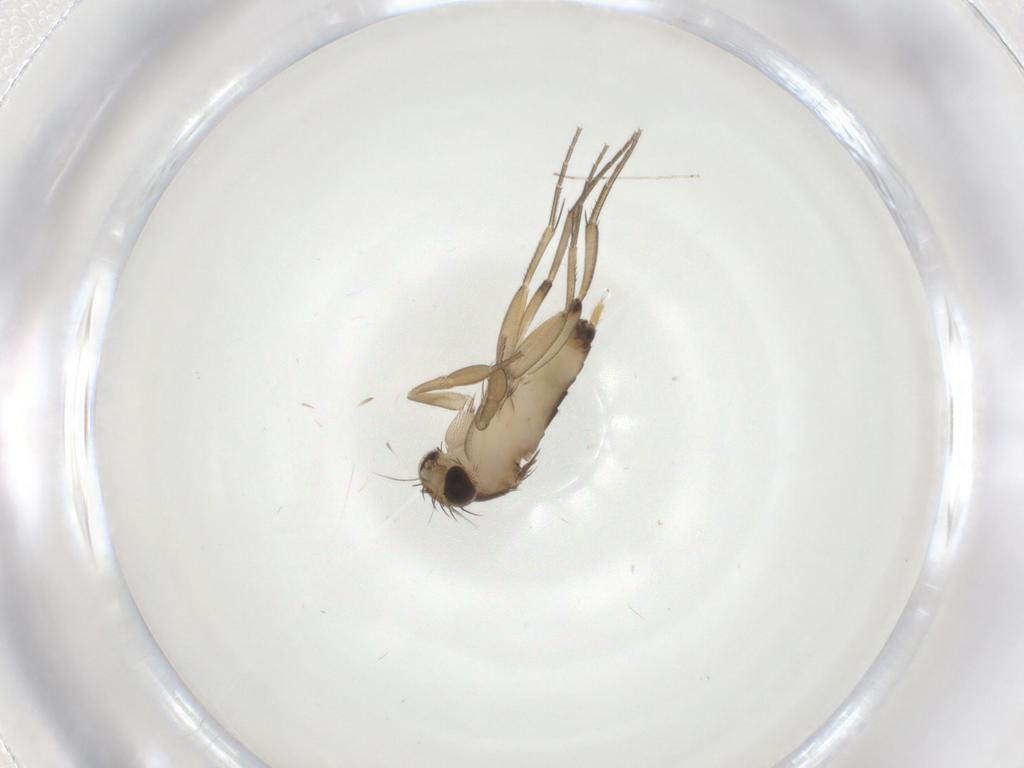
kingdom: Animalia
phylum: Arthropoda
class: Insecta
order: Diptera
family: Phoridae
